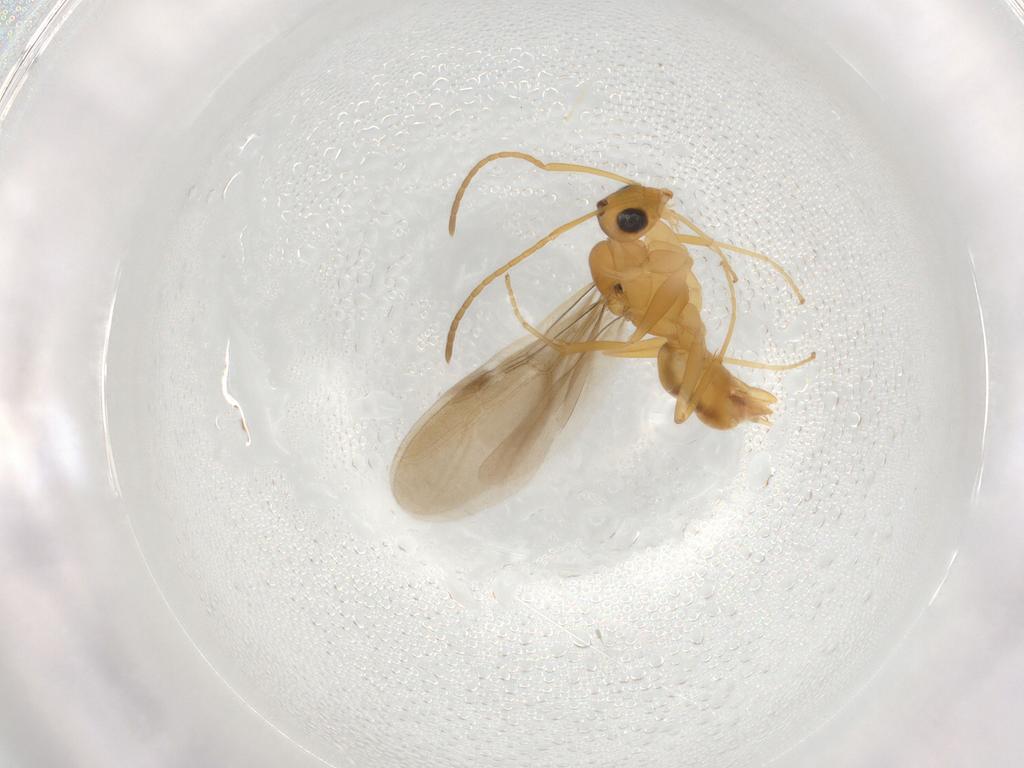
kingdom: Animalia
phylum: Arthropoda
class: Insecta
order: Hymenoptera
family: Formicidae
